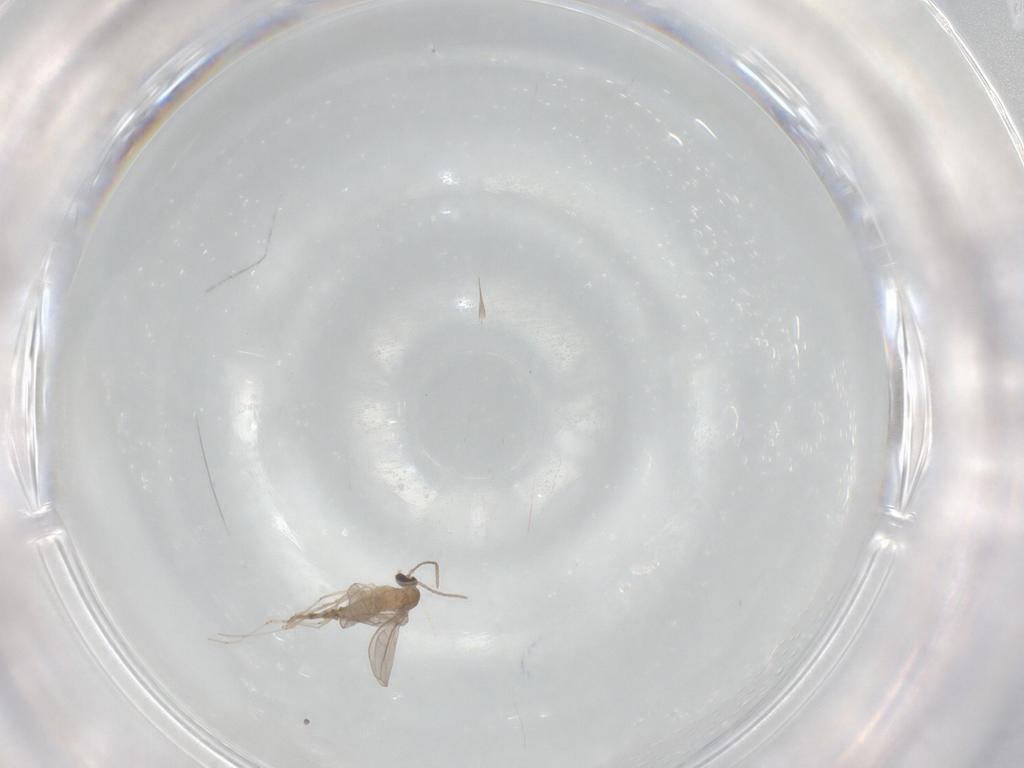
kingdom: Animalia
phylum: Arthropoda
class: Insecta
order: Diptera
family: Cecidomyiidae
